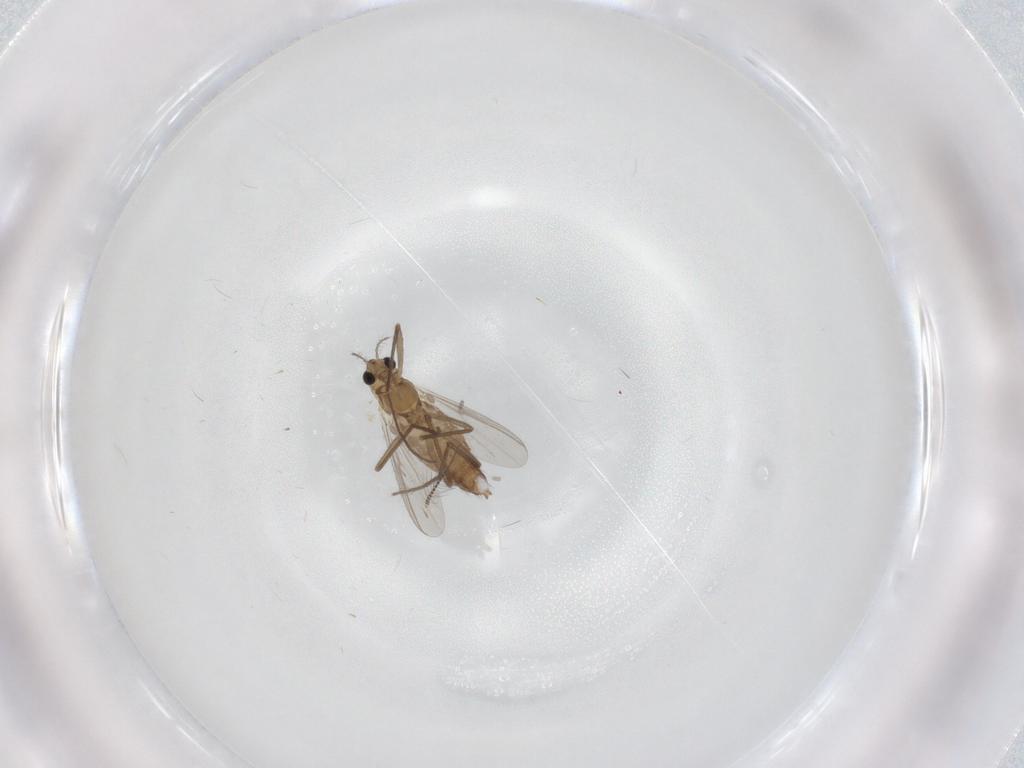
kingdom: Animalia
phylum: Arthropoda
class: Insecta
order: Diptera
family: Chironomidae
